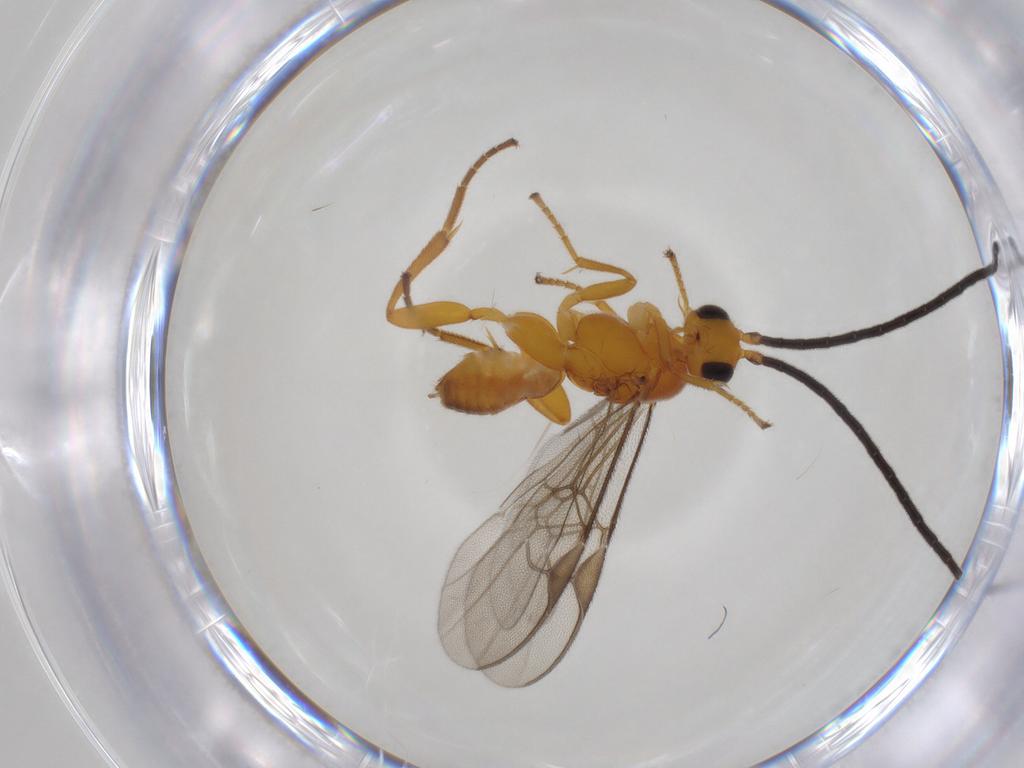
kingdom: Animalia
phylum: Arthropoda
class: Insecta
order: Hymenoptera
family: Braconidae
